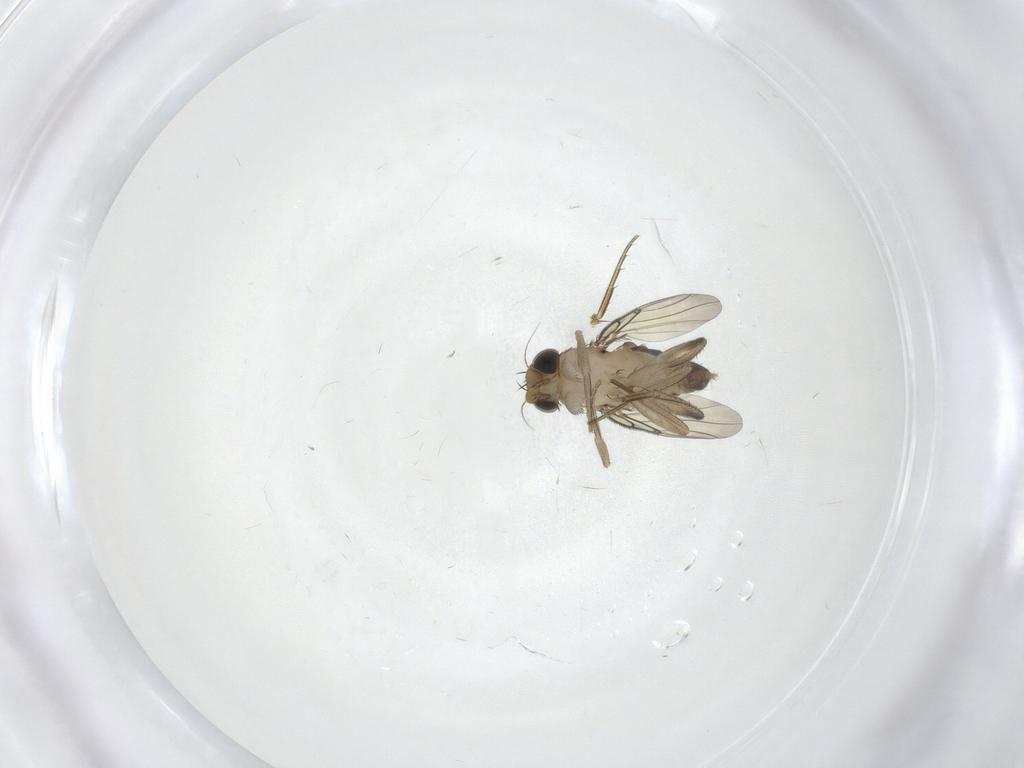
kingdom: Animalia
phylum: Arthropoda
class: Insecta
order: Diptera
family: Phoridae
